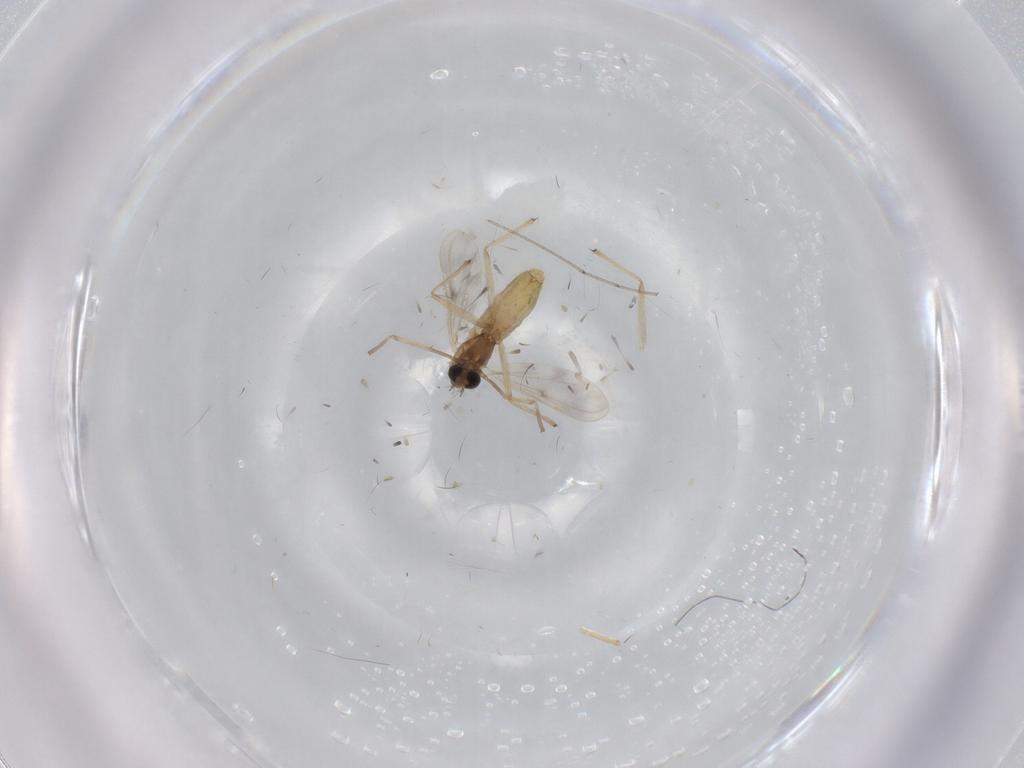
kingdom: Animalia
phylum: Arthropoda
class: Insecta
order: Diptera
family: Chironomidae
